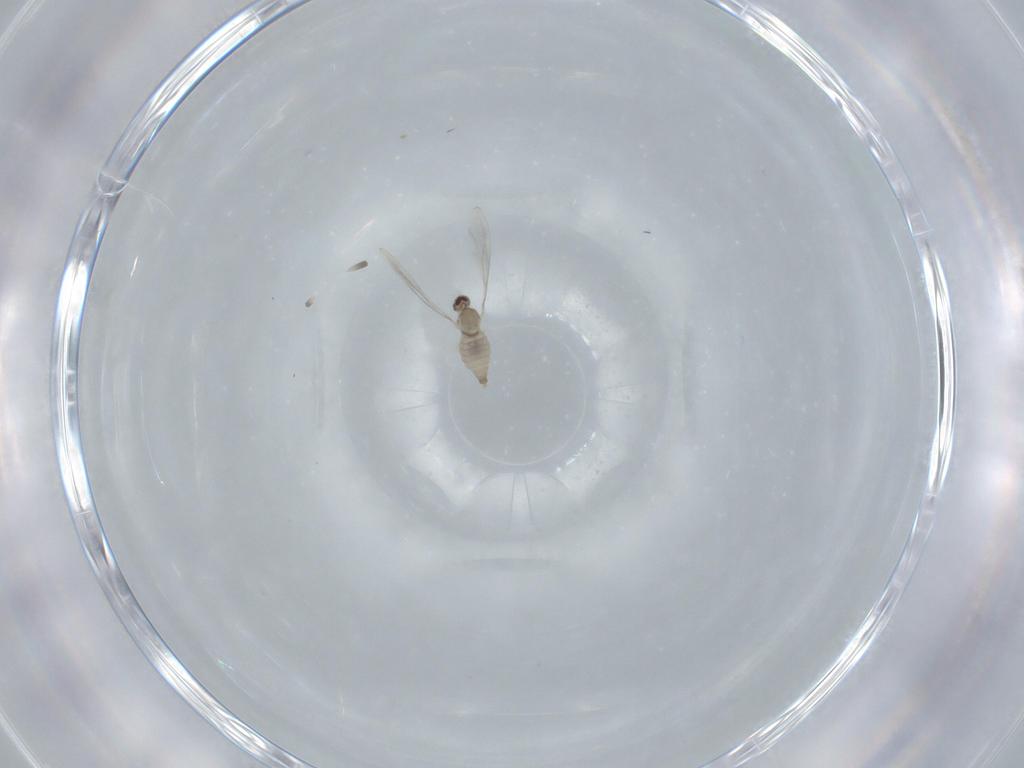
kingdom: Animalia
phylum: Arthropoda
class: Insecta
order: Diptera
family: Cecidomyiidae
